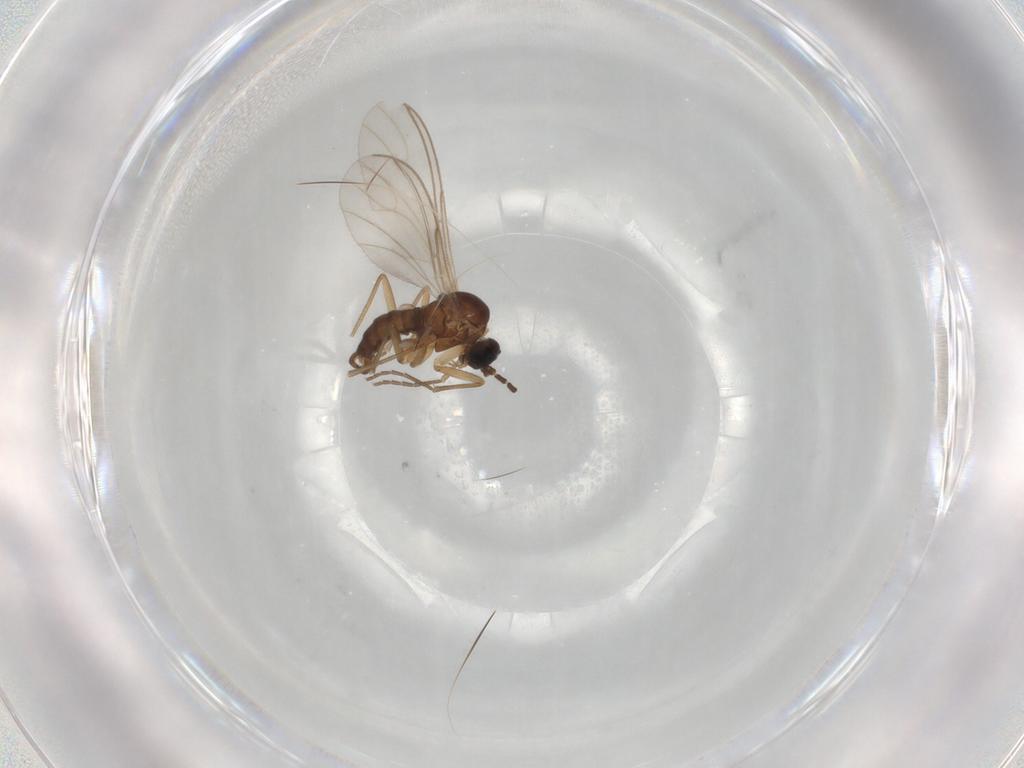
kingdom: Animalia
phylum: Arthropoda
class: Insecta
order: Diptera
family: Sciaridae
